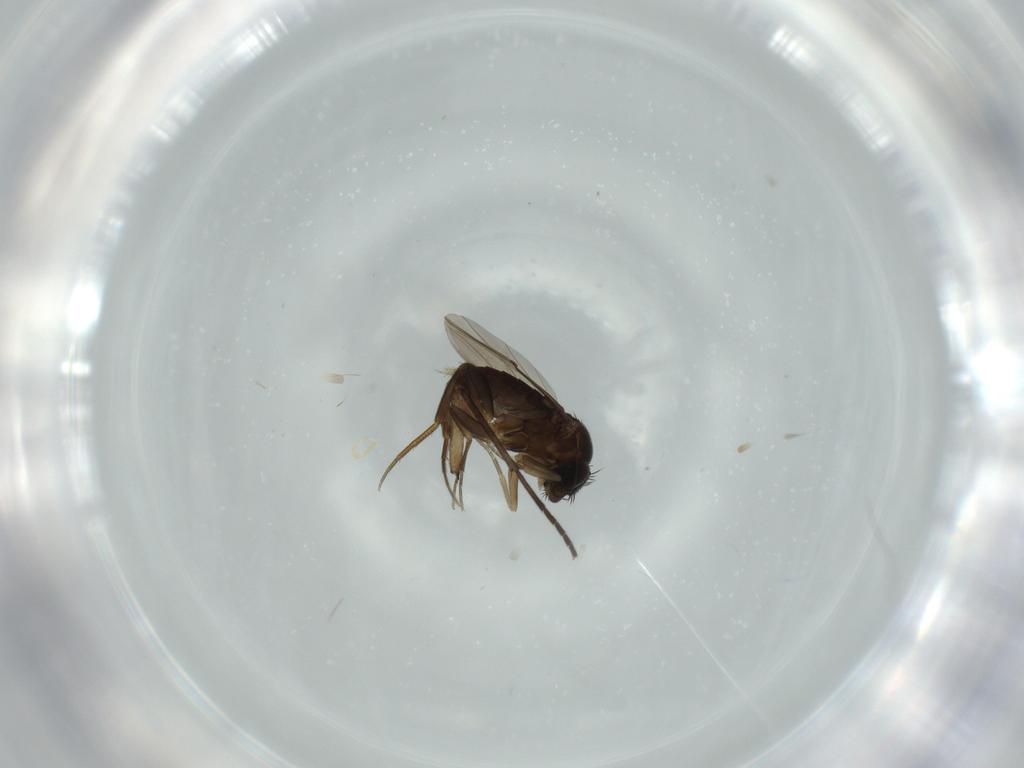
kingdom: Animalia
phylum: Arthropoda
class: Insecta
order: Diptera
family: Sciaridae
